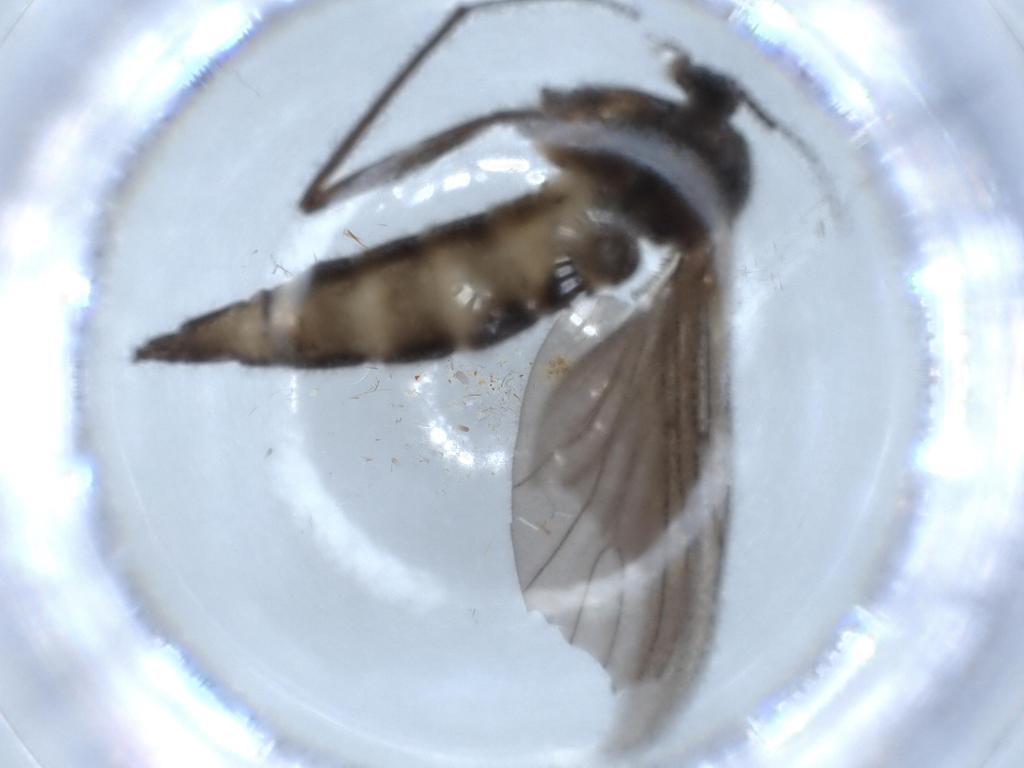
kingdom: Animalia
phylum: Arthropoda
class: Insecta
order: Diptera
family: Sciaridae
